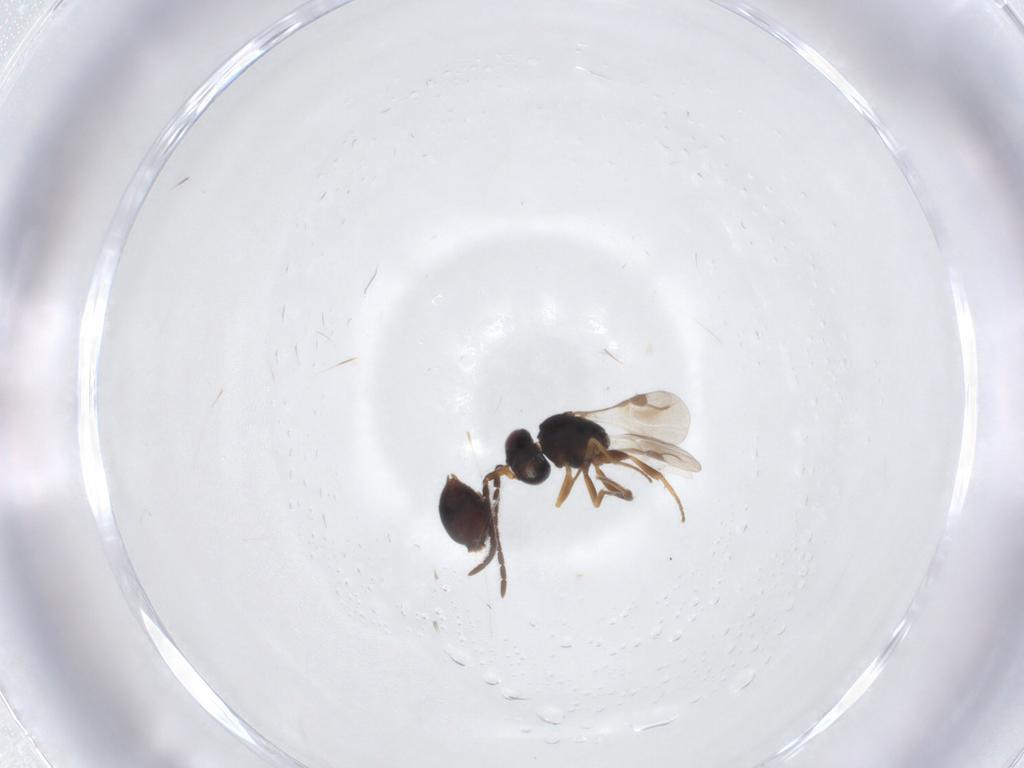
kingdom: Animalia
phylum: Arthropoda
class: Insecta
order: Hymenoptera
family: Megaspilidae
